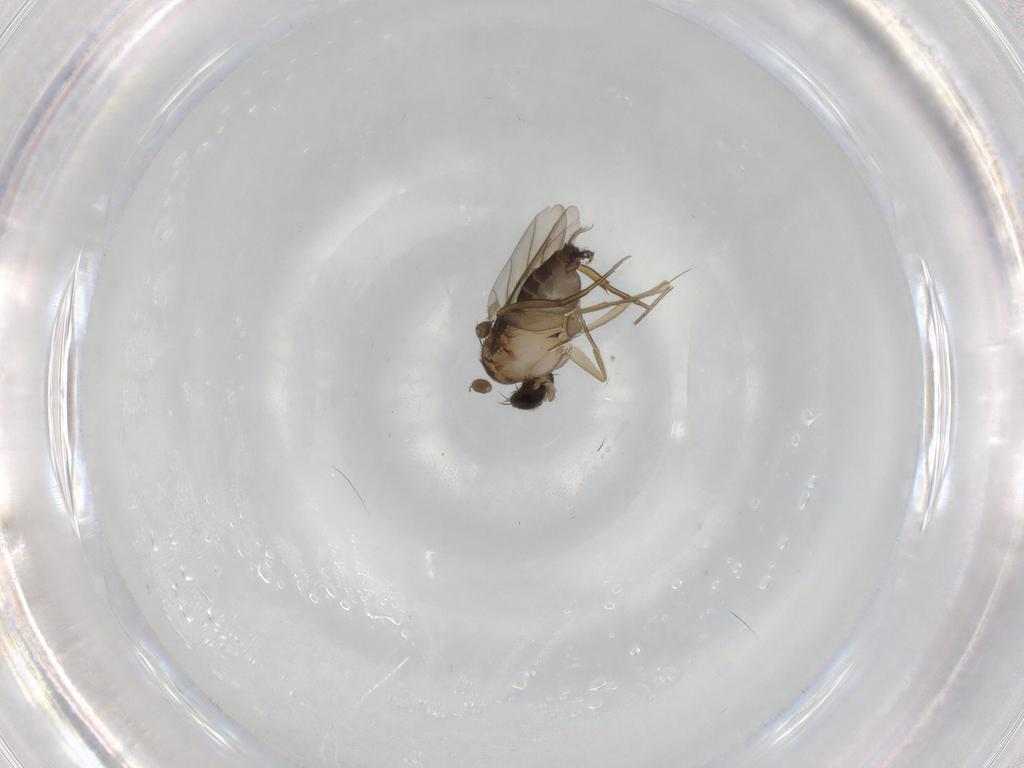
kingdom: Animalia
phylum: Arthropoda
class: Insecta
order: Diptera
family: Phoridae
